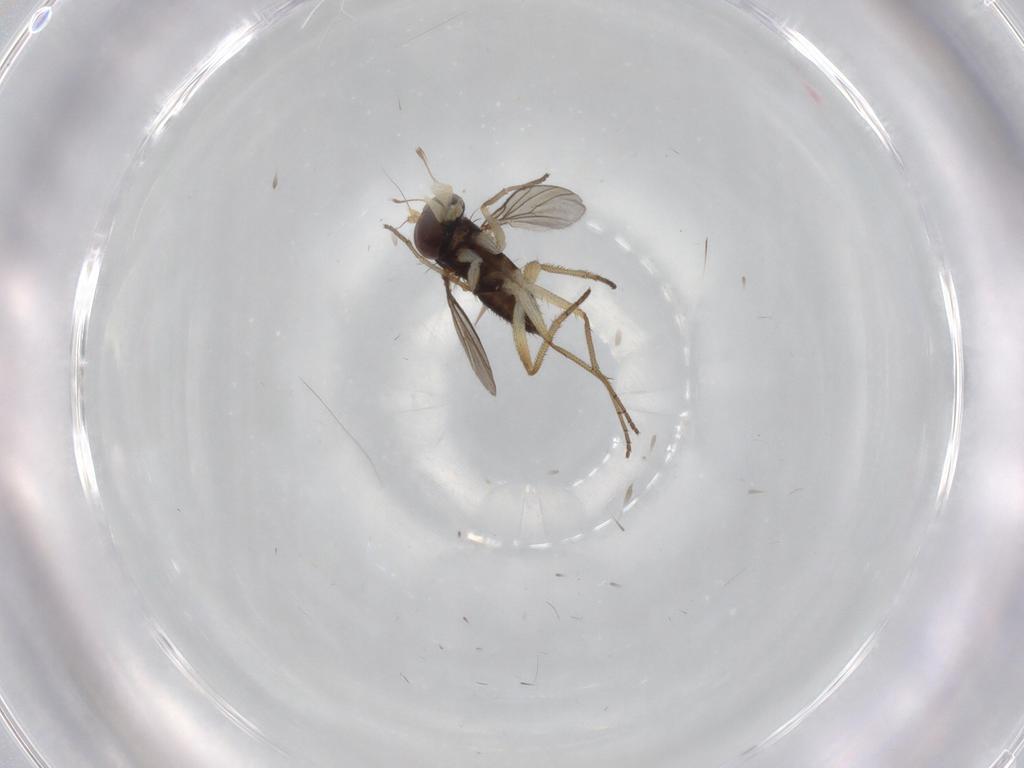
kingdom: Animalia
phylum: Arthropoda
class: Insecta
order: Diptera
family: Dolichopodidae
